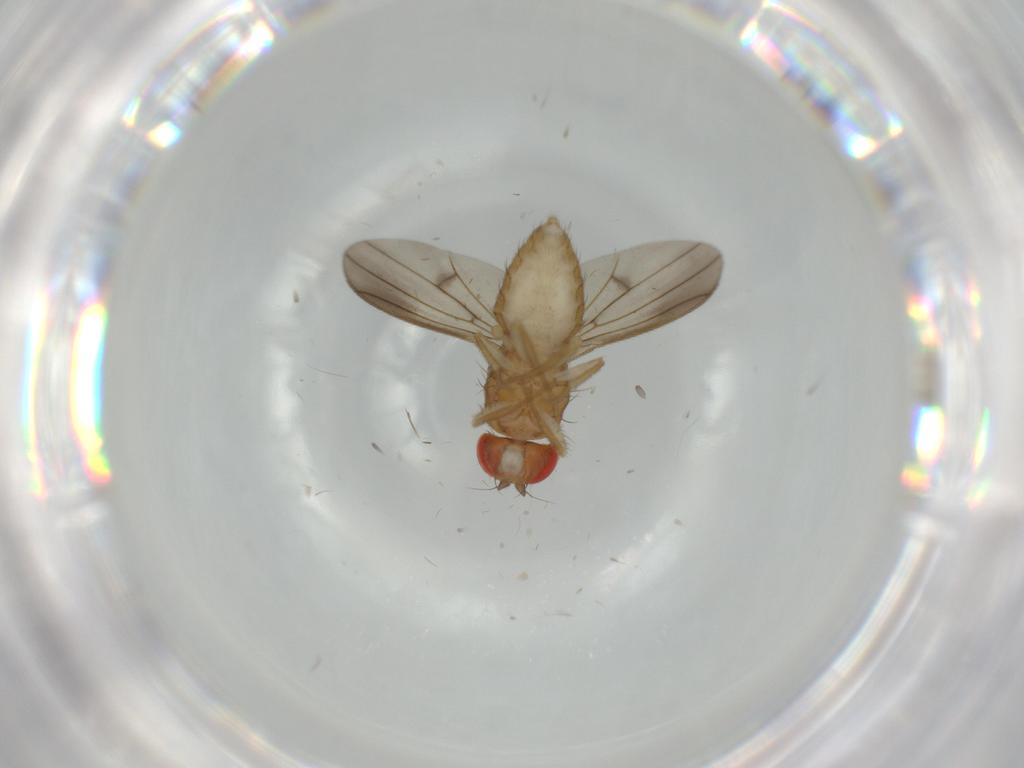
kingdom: Animalia
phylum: Arthropoda
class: Insecta
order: Diptera
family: Drosophilidae
